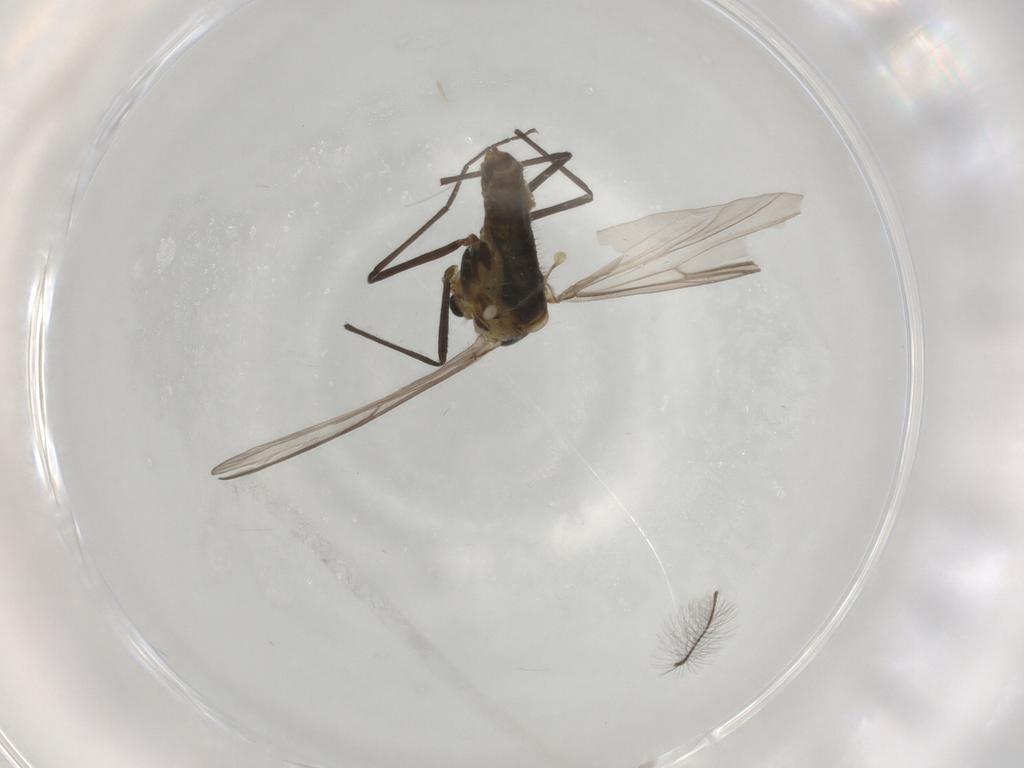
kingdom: Animalia
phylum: Arthropoda
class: Insecta
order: Diptera
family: Chironomidae
